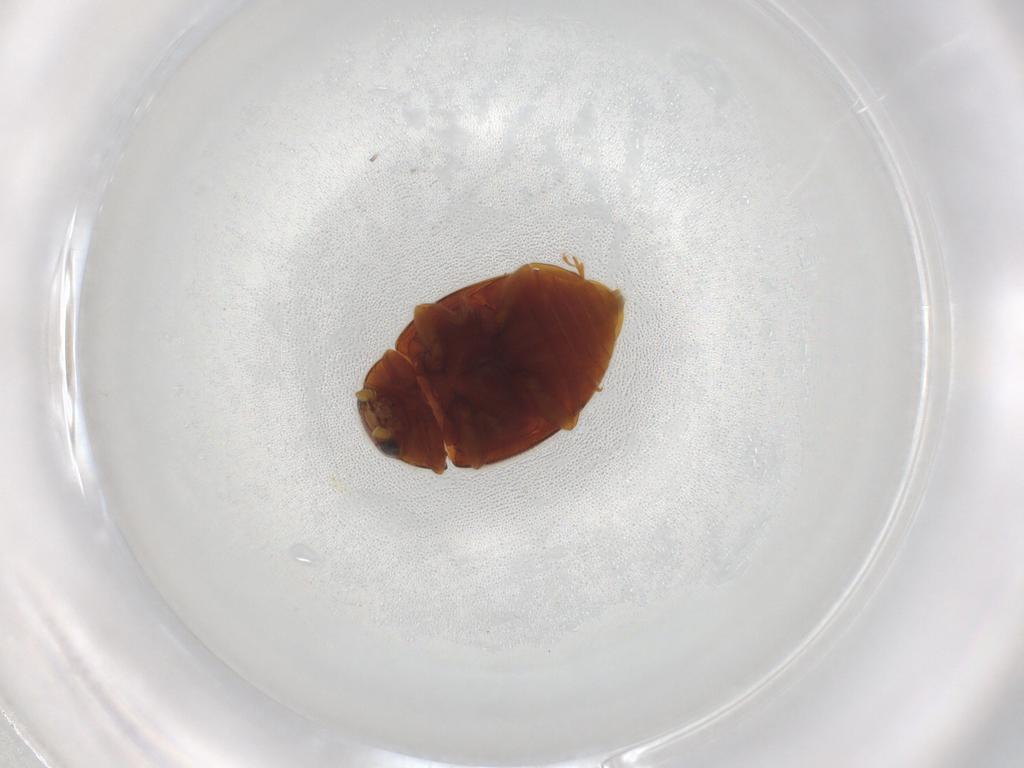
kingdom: Animalia
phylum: Arthropoda
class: Insecta
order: Coleoptera
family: Coccinellidae
